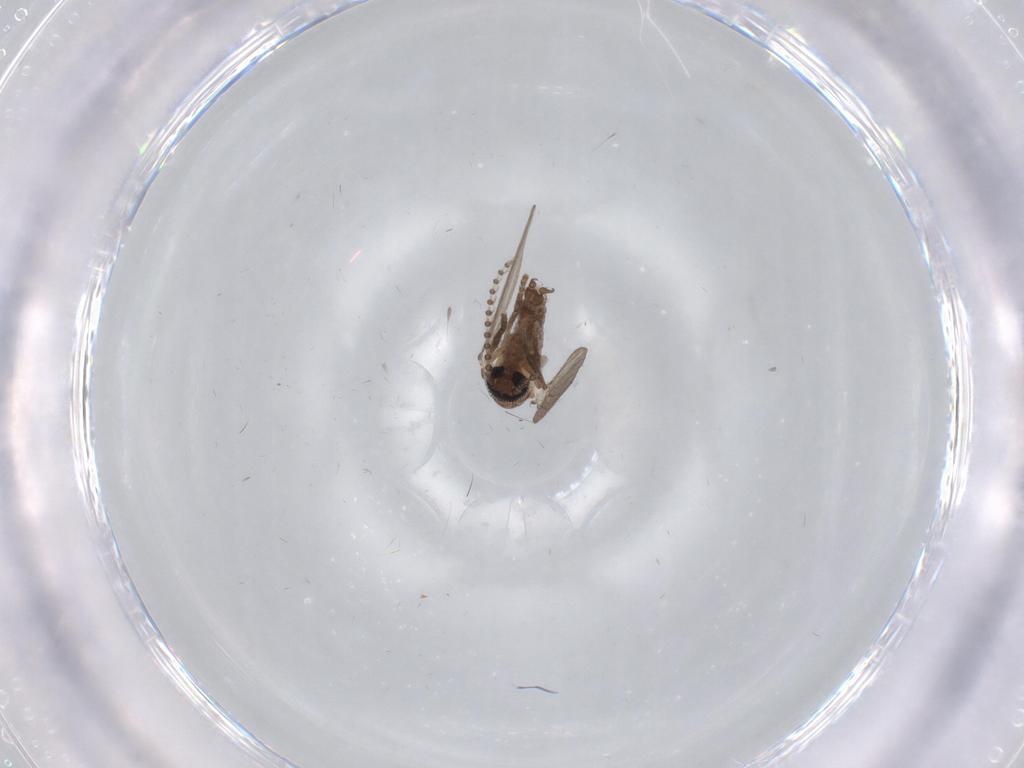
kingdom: Animalia
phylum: Arthropoda
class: Insecta
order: Diptera
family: Psychodidae
